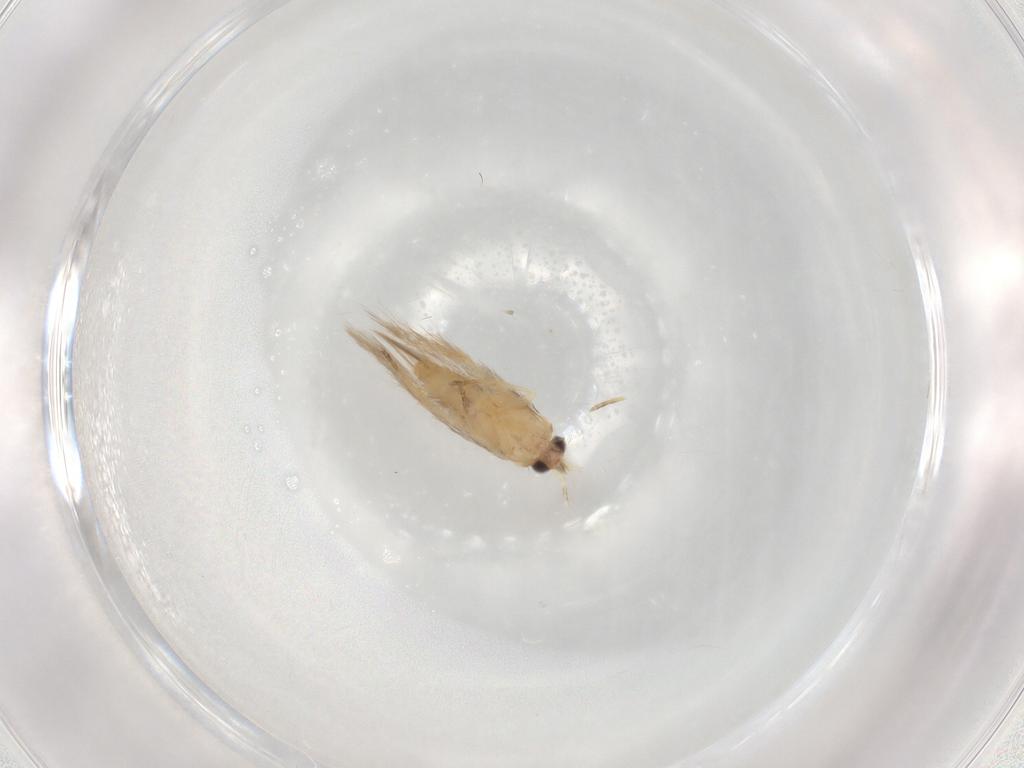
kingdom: Animalia
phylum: Arthropoda
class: Insecta
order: Lepidoptera
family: Nepticulidae
